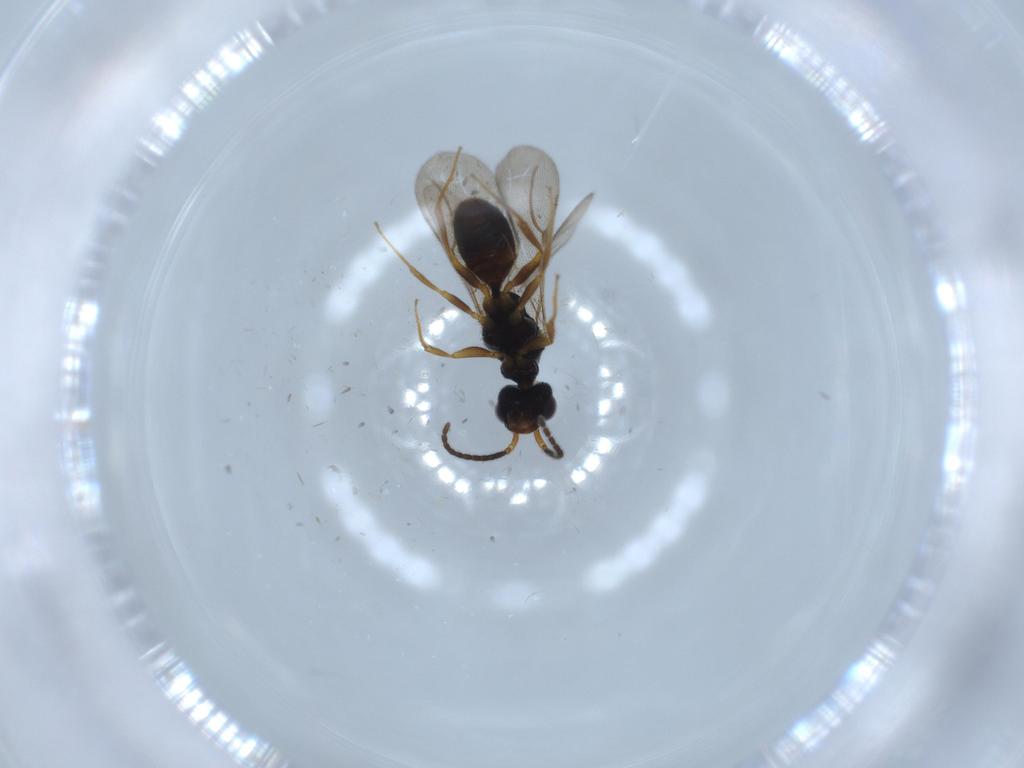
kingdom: Animalia
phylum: Arthropoda
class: Insecta
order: Hymenoptera
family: Bethylidae
